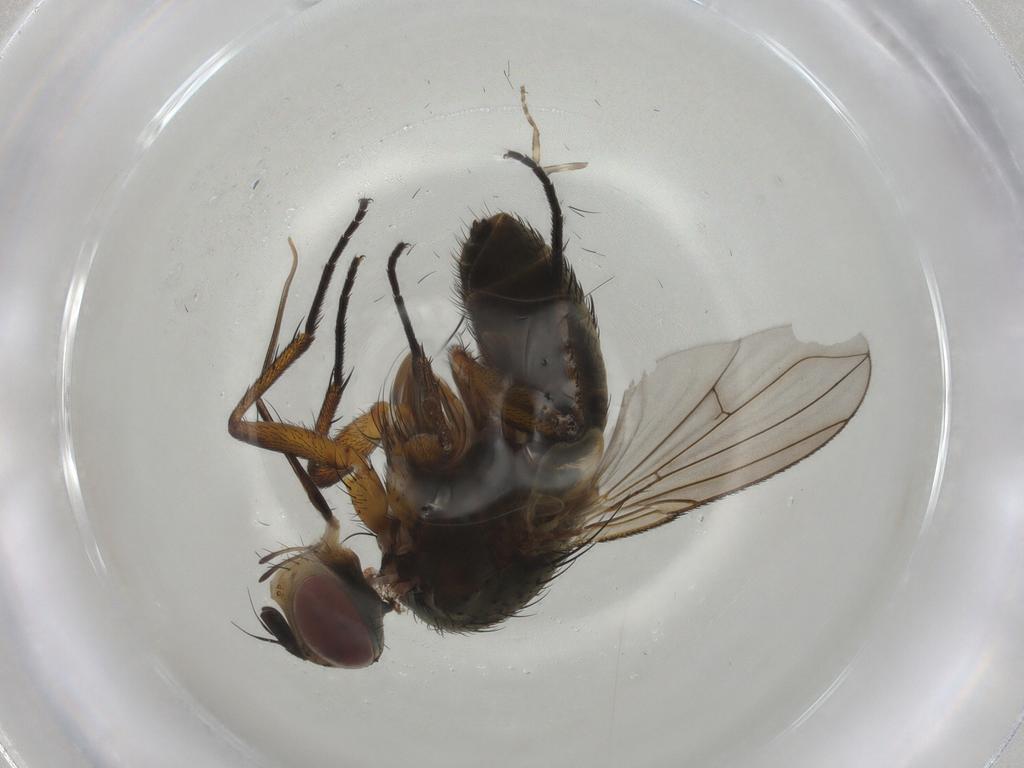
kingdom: Animalia
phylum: Arthropoda
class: Insecta
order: Diptera
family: Tachinidae
